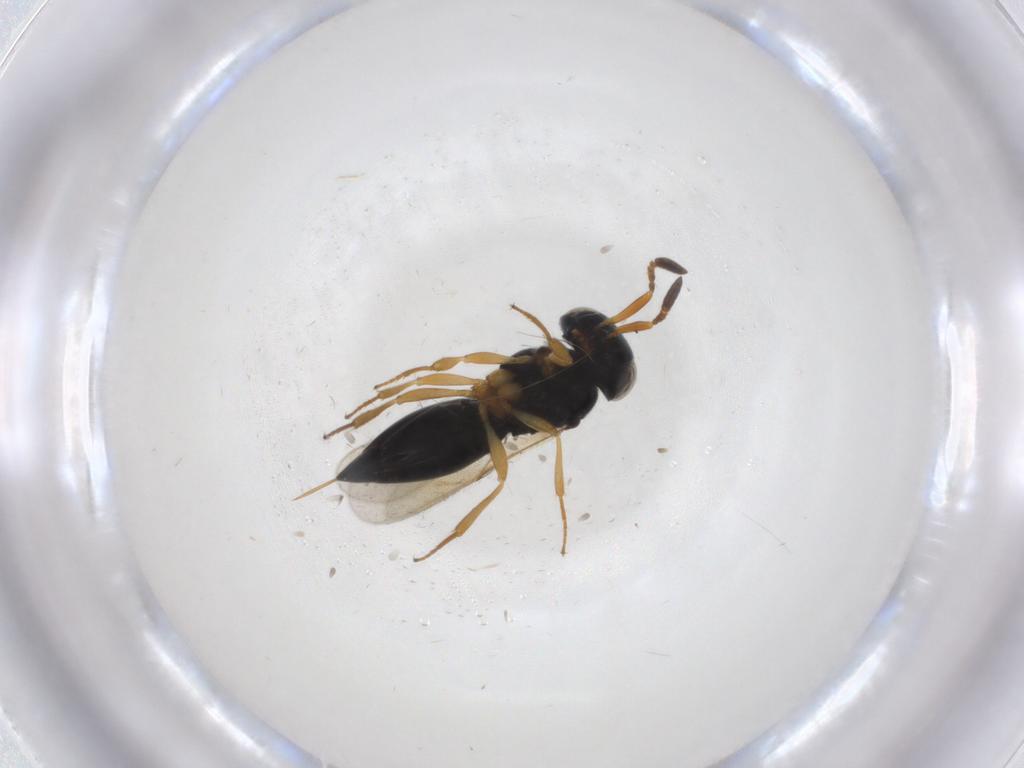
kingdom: Animalia
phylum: Arthropoda
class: Insecta
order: Hymenoptera
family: Scelionidae
